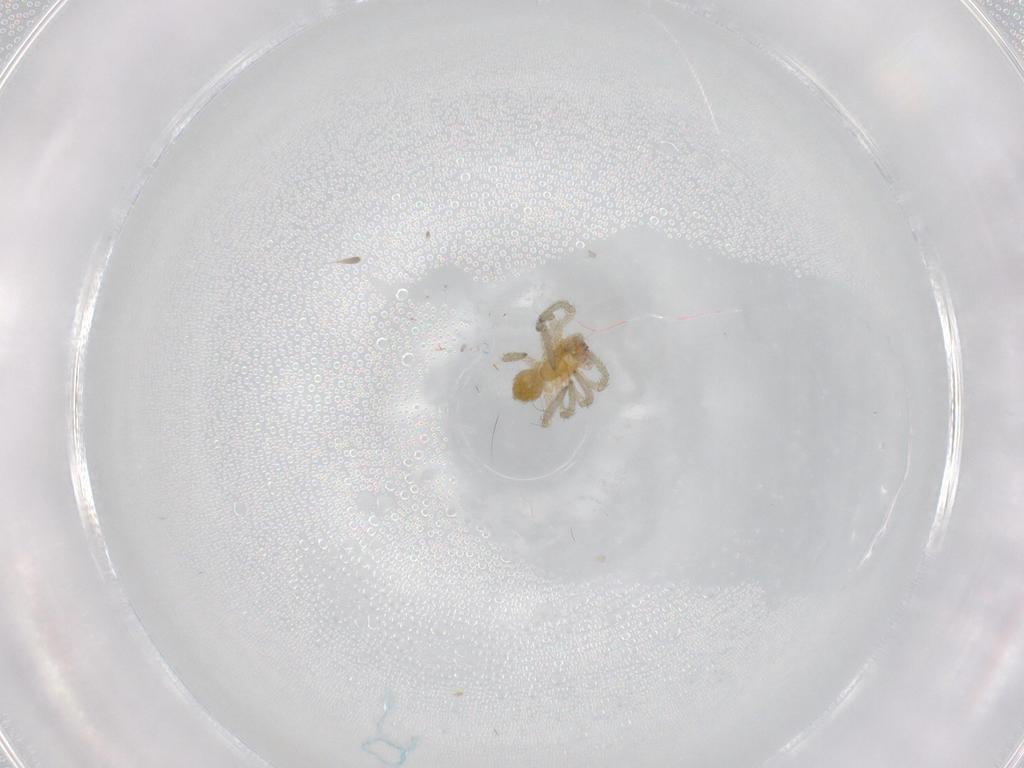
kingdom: Animalia
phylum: Arthropoda
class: Arachnida
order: Araneae
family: Dictynidae
